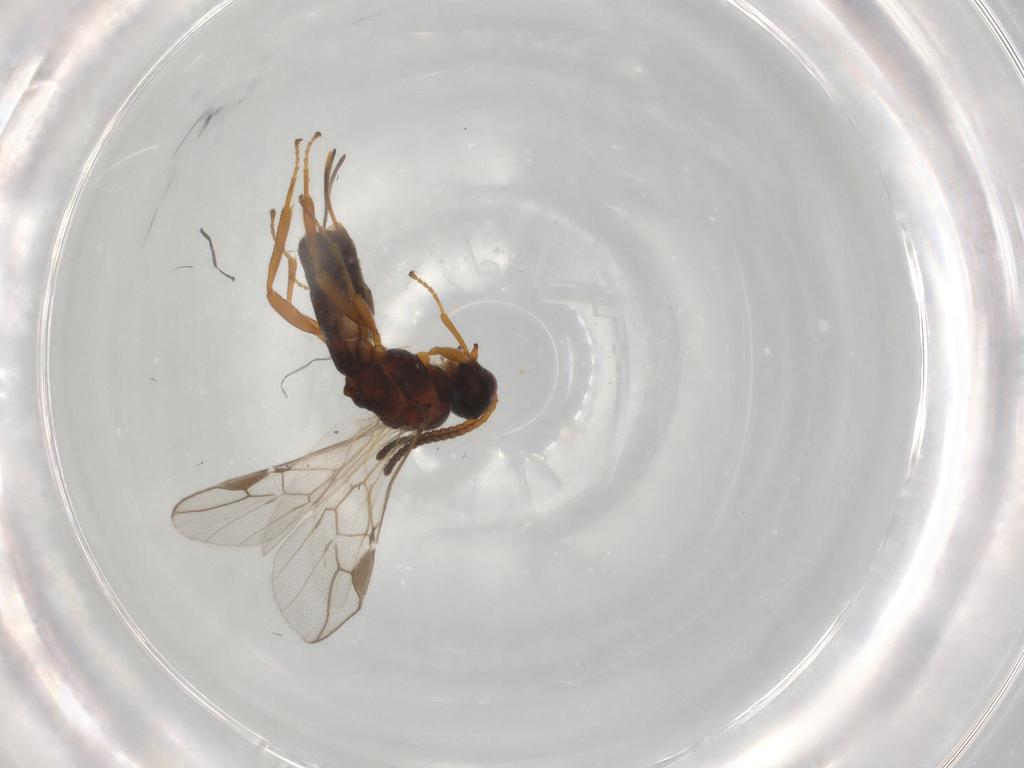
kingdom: Animalia
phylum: Arthropoda
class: Insecta
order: Hymenoptera
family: Braconidae
